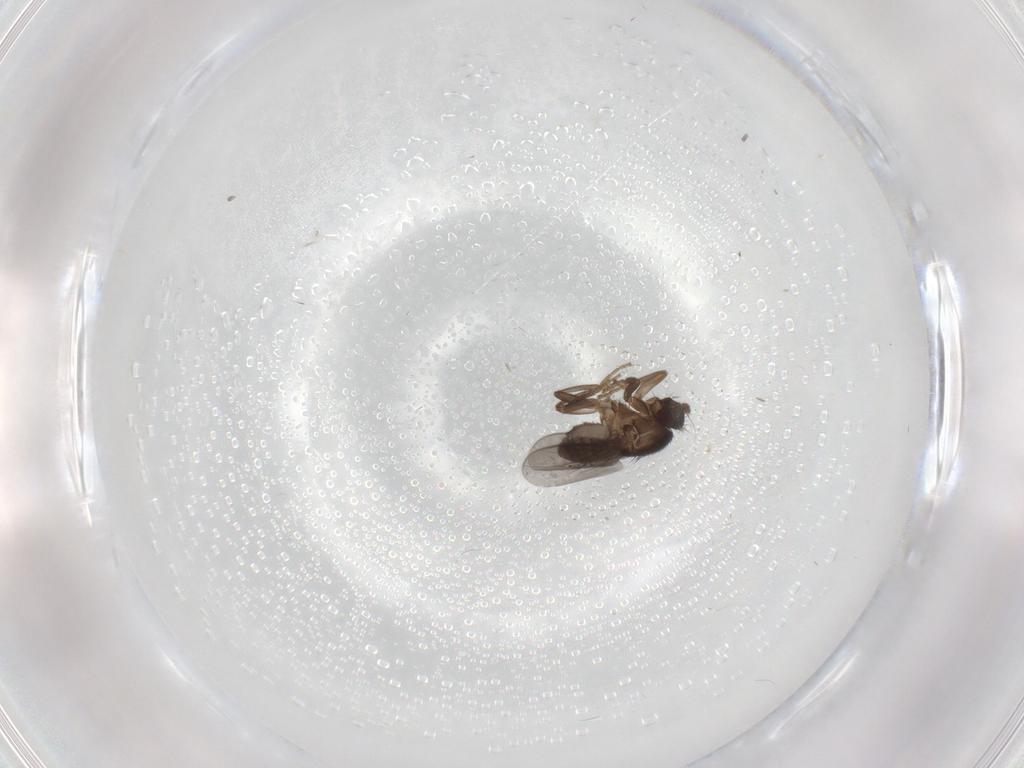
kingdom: Animalia
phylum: Arthropoda
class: Insecta
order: Diptera
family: Sphaeroceridae
